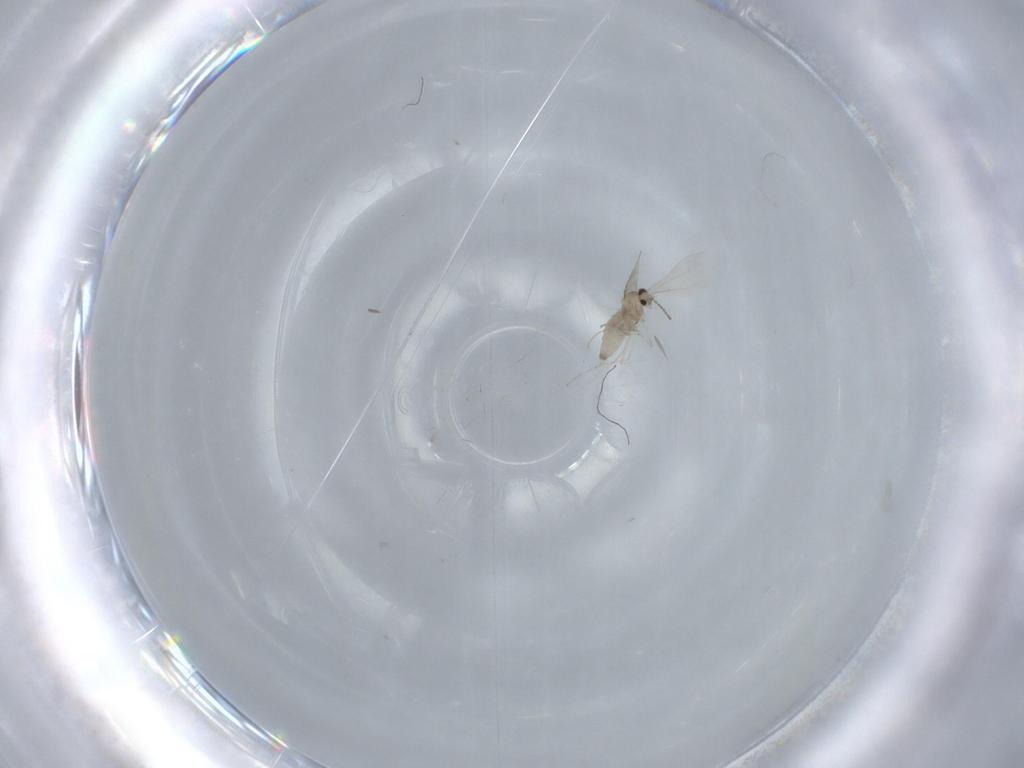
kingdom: Animalia
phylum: Arthropoda
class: Insecta
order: Diptera
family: Cecidomyiidae
